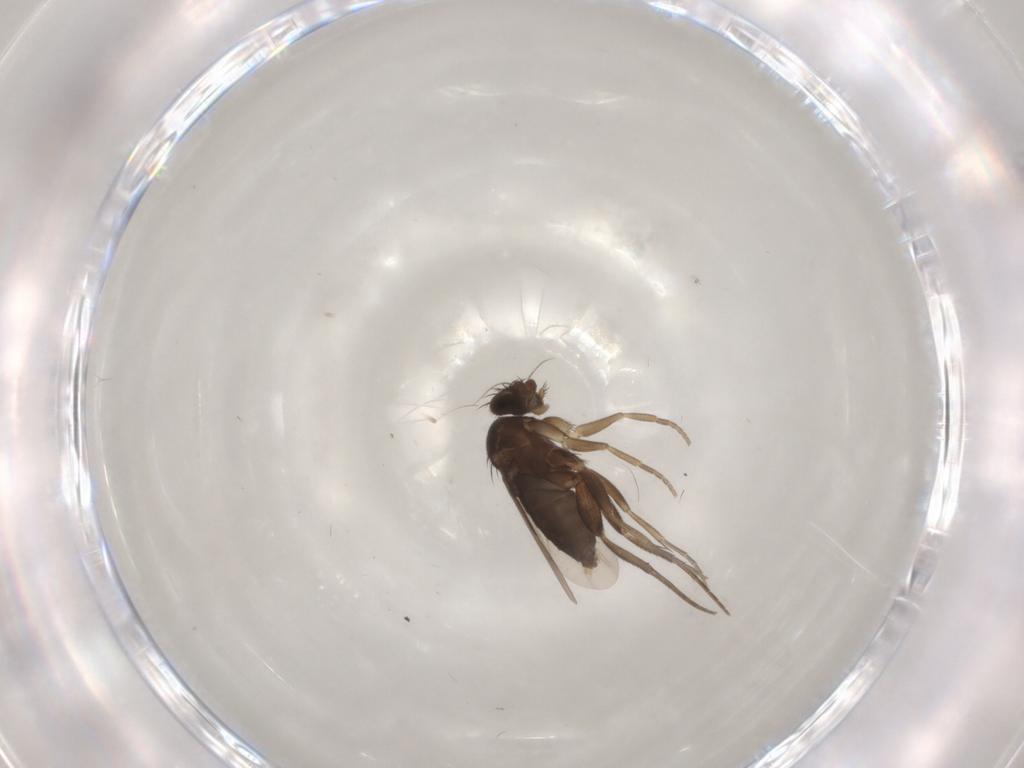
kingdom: Animalia
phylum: Arthropoda
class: Insecta
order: Diptera
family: Phoridae
